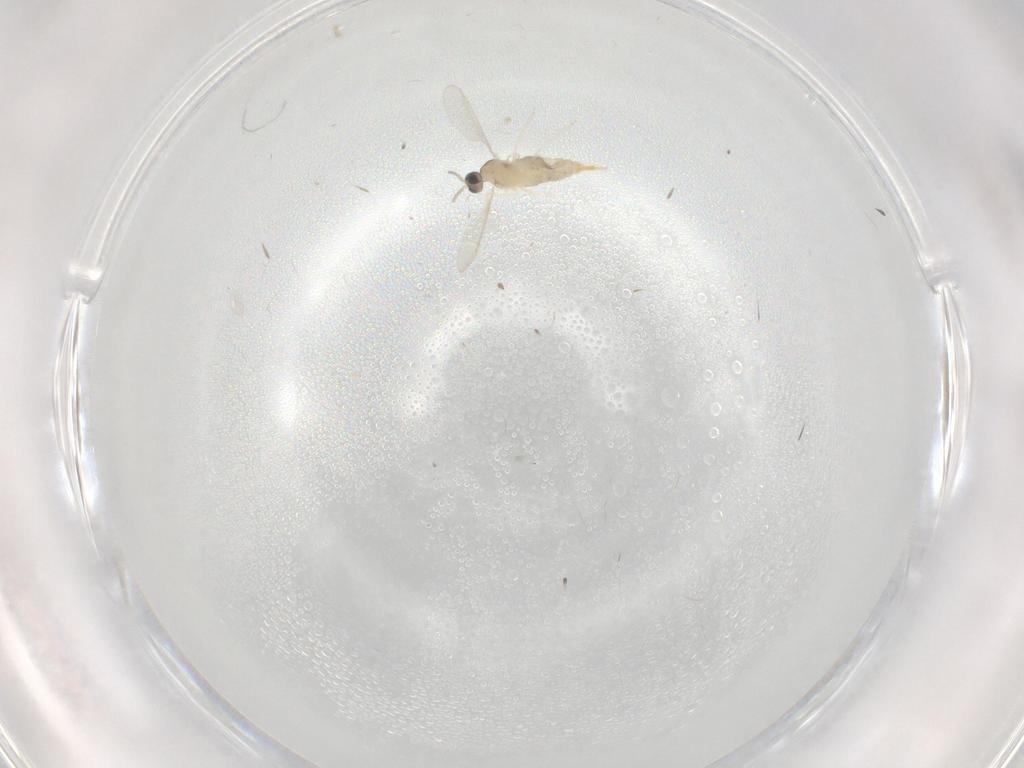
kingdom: Animalia
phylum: Arthropoda
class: Insecta
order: Diptera
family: Cecidomyiidae
